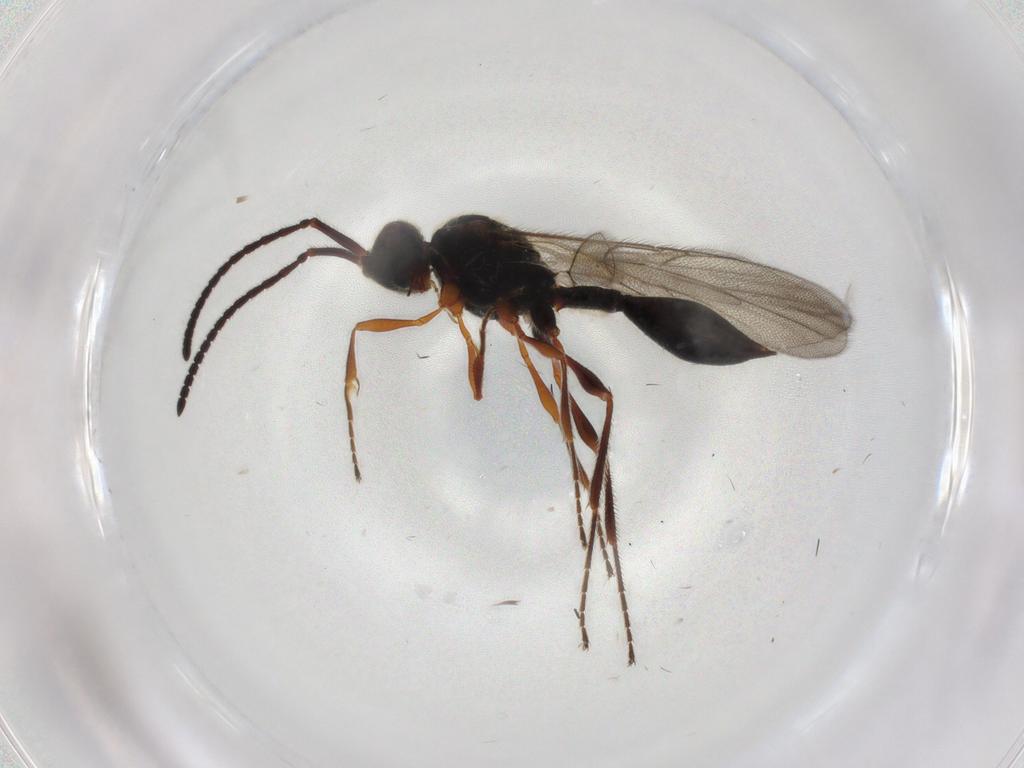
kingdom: Animalia
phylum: Arthropoda
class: Insecta
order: Hymenoptera
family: Diapriidae
